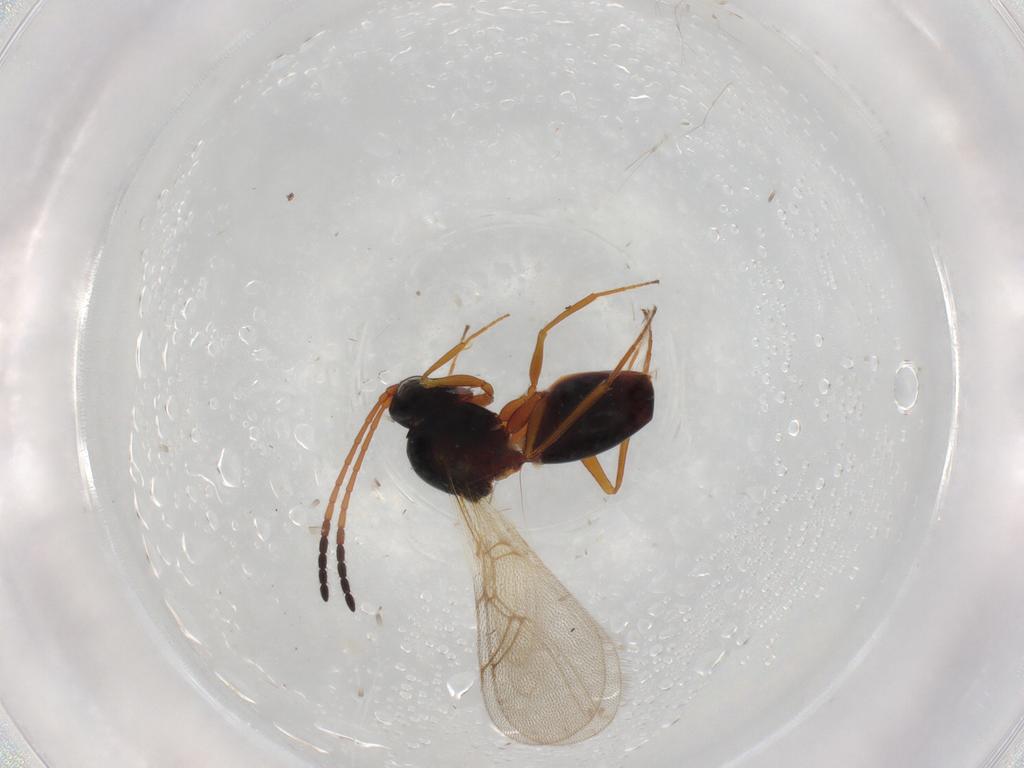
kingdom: Animalia
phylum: Arthropoda
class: Insecta
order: Hymenoptera
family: Figitidae
